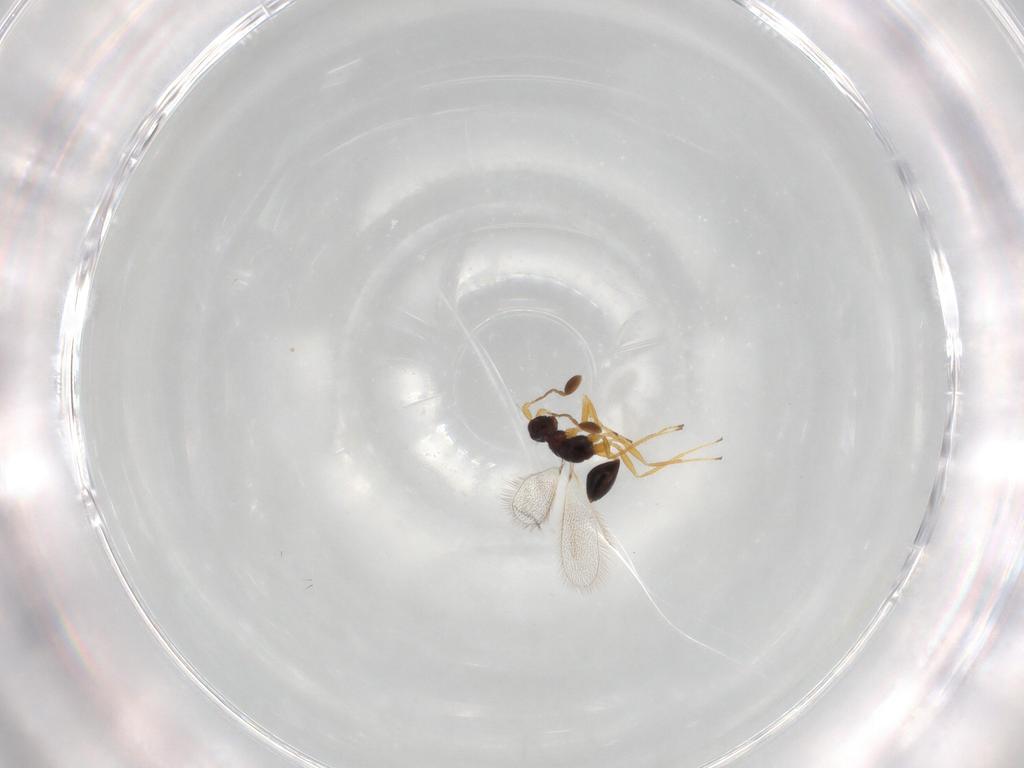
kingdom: Animalia
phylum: Arthropoda
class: Insecta
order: Hymenoptera
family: Mymaridae
